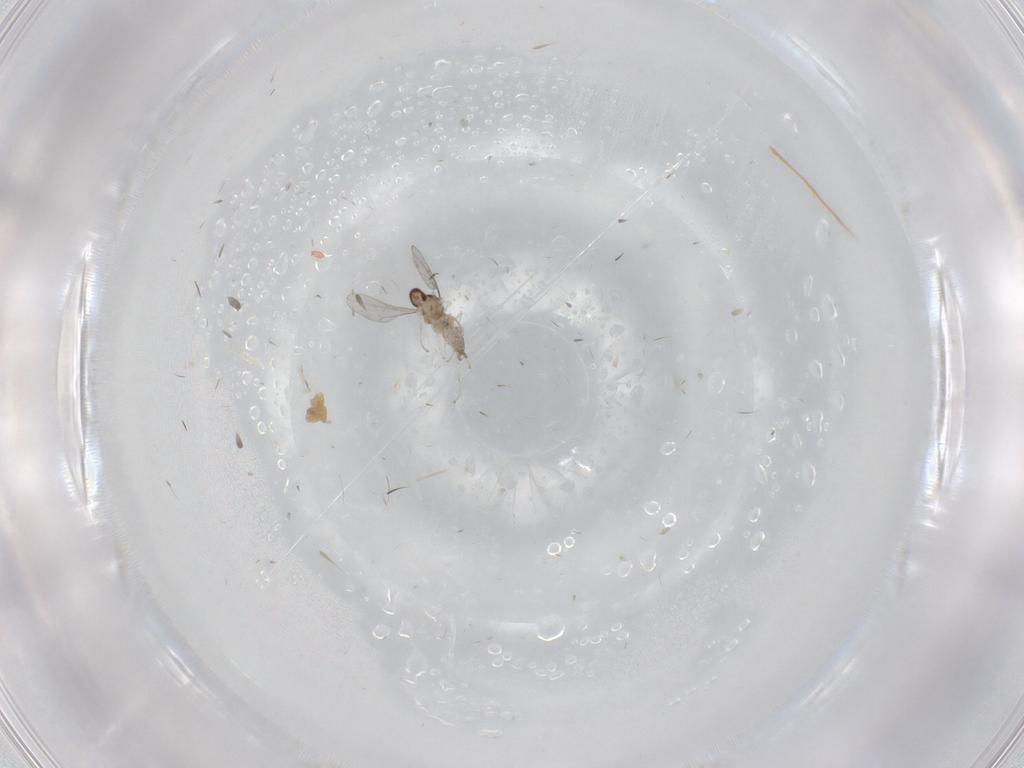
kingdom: Animalia
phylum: Arthropoda
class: Insecta
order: Diptera
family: Cecidomyiidae
